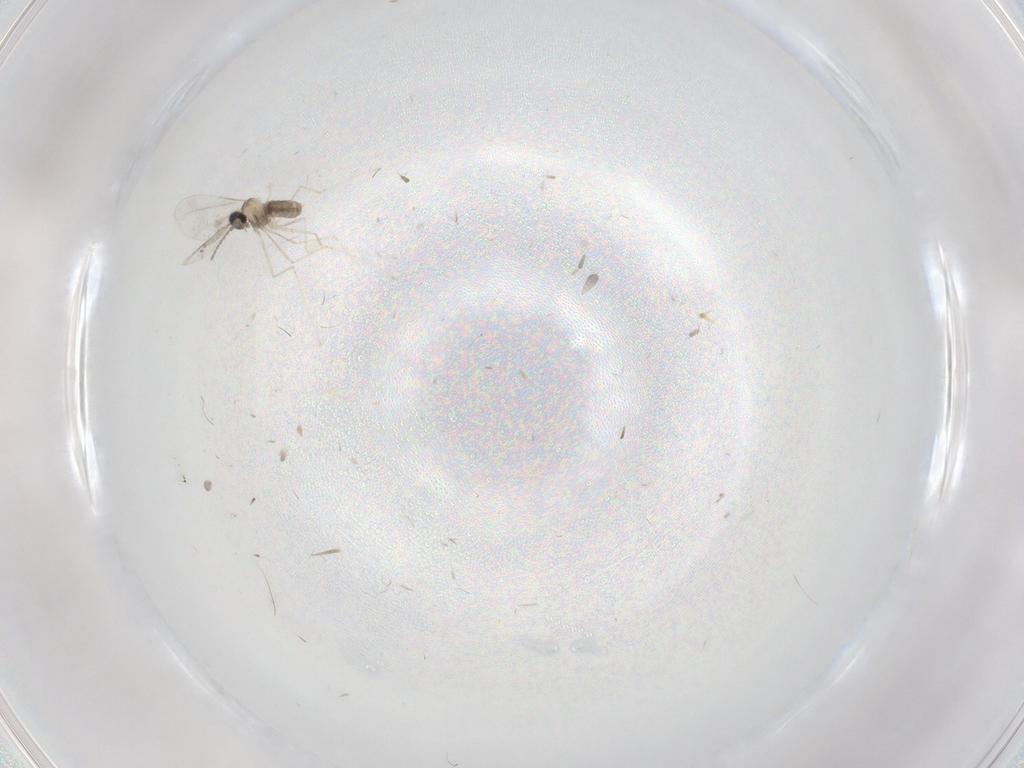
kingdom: Animalia
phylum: Arthropoda
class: Insecta
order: Diptera
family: Cecidomyiidae
